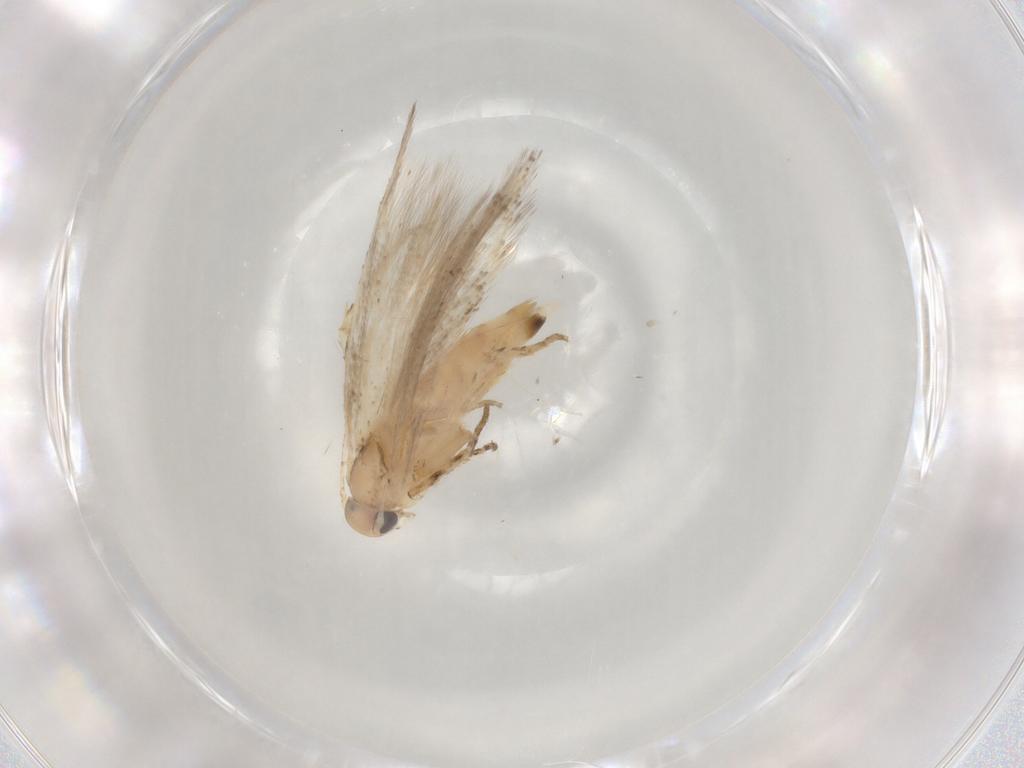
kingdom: Animalia
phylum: Arthropoda
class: Insecta
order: Lepidoptera
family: Gelechiidae
